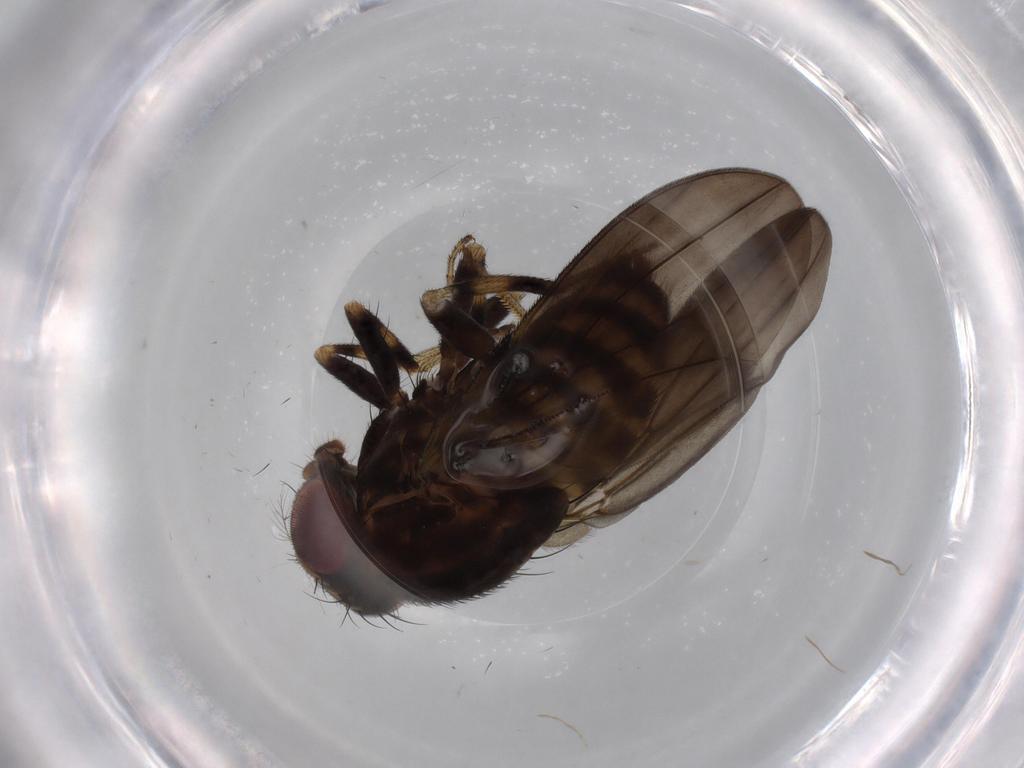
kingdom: Animalia
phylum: Arthropoda
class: Insecta
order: Diptera
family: Drosophilidae
